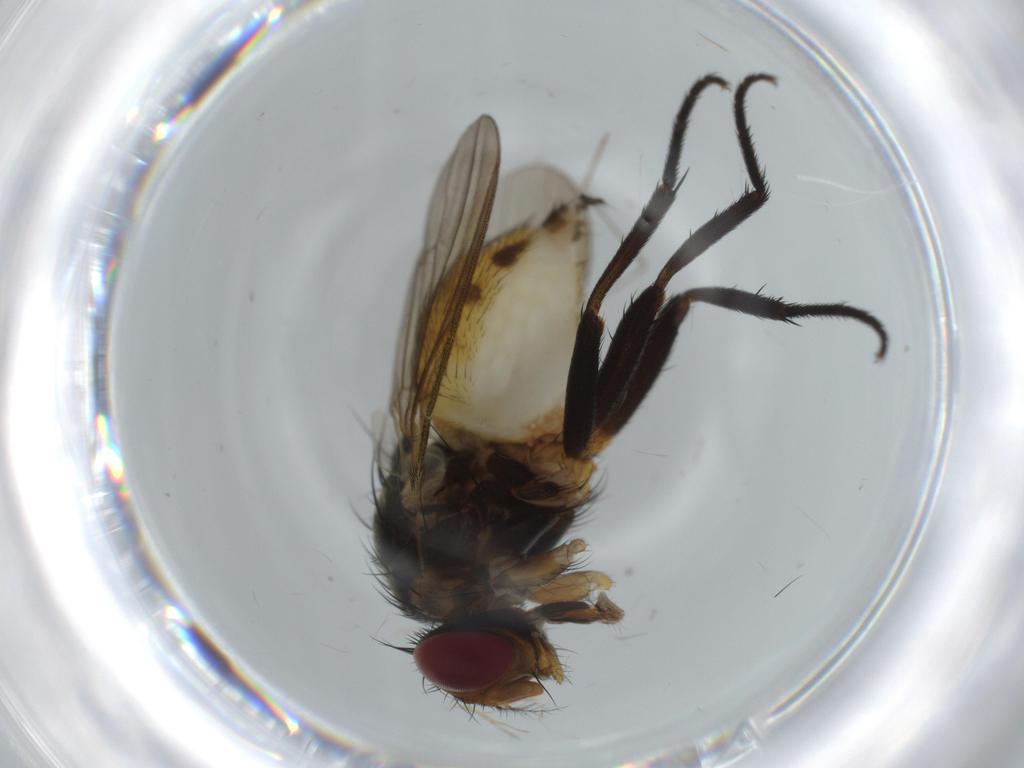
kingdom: Animalia
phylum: Arthropoda
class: Insecta
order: Diptera
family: Anthomyiidae
